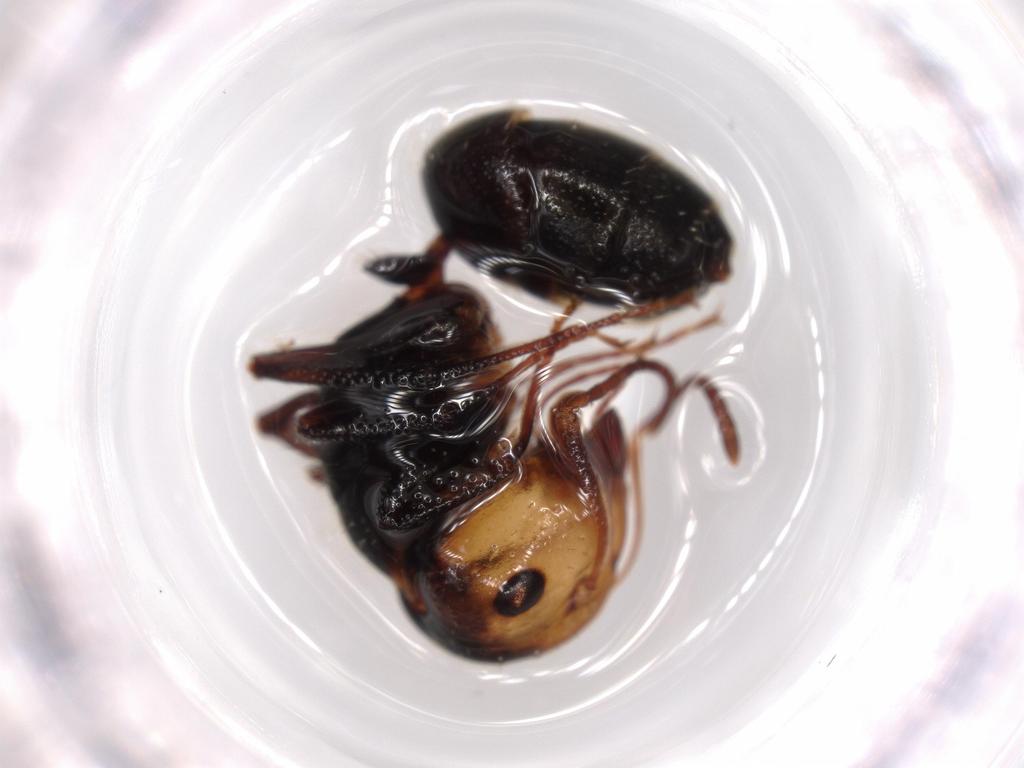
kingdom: Animalia
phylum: Arthropoda
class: Insecta
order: Hymenoptera
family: Formicidae
